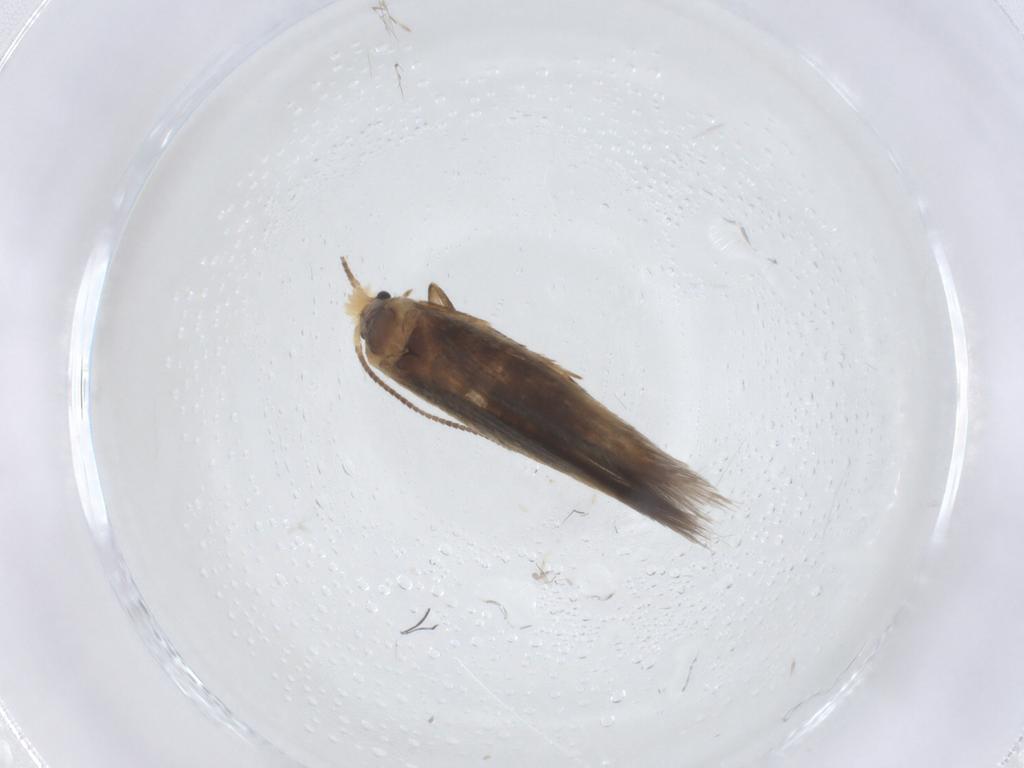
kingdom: Animalia
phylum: Arthropoda
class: Insecta
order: Lepidoptera
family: Nepticulidae
